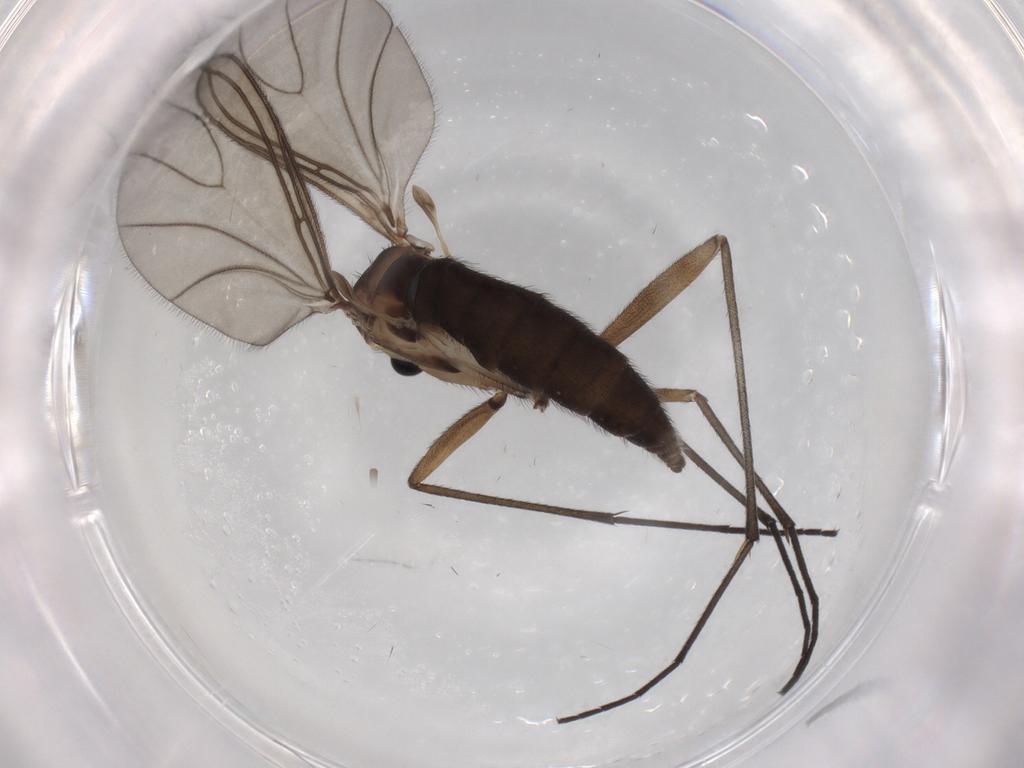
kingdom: Animalia
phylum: Arthropoda
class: Insecta
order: Diptera
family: Sciaridae
